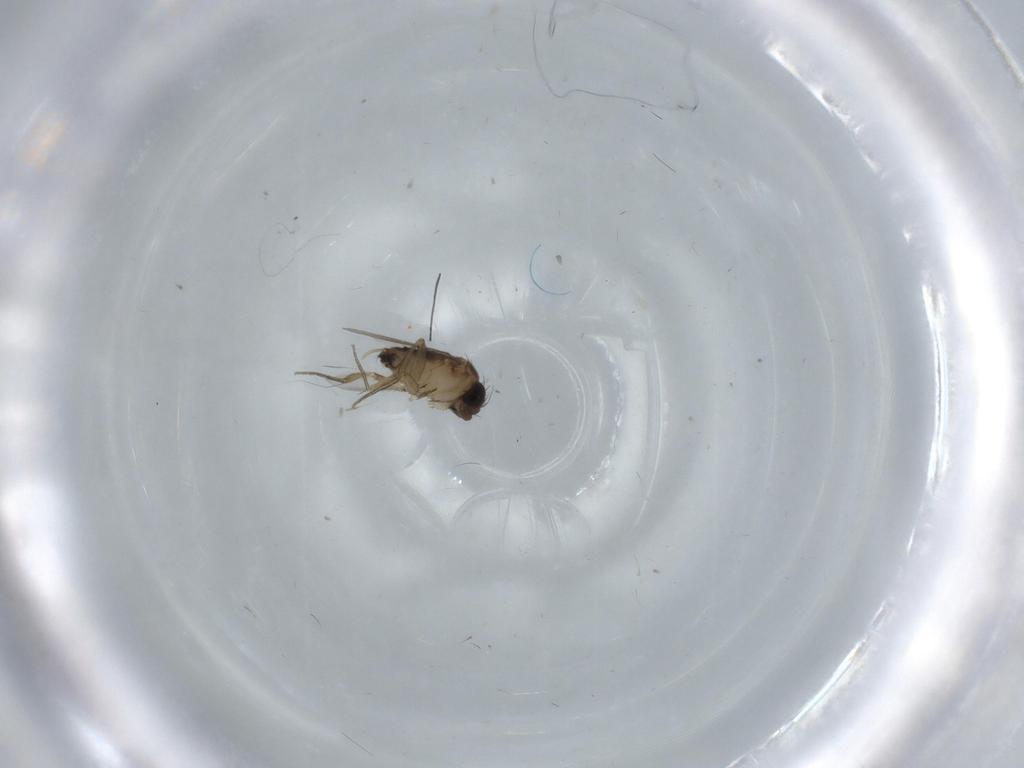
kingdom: Animalia
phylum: Arthropoda
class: Insecta
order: Diptera
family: Phoridae
